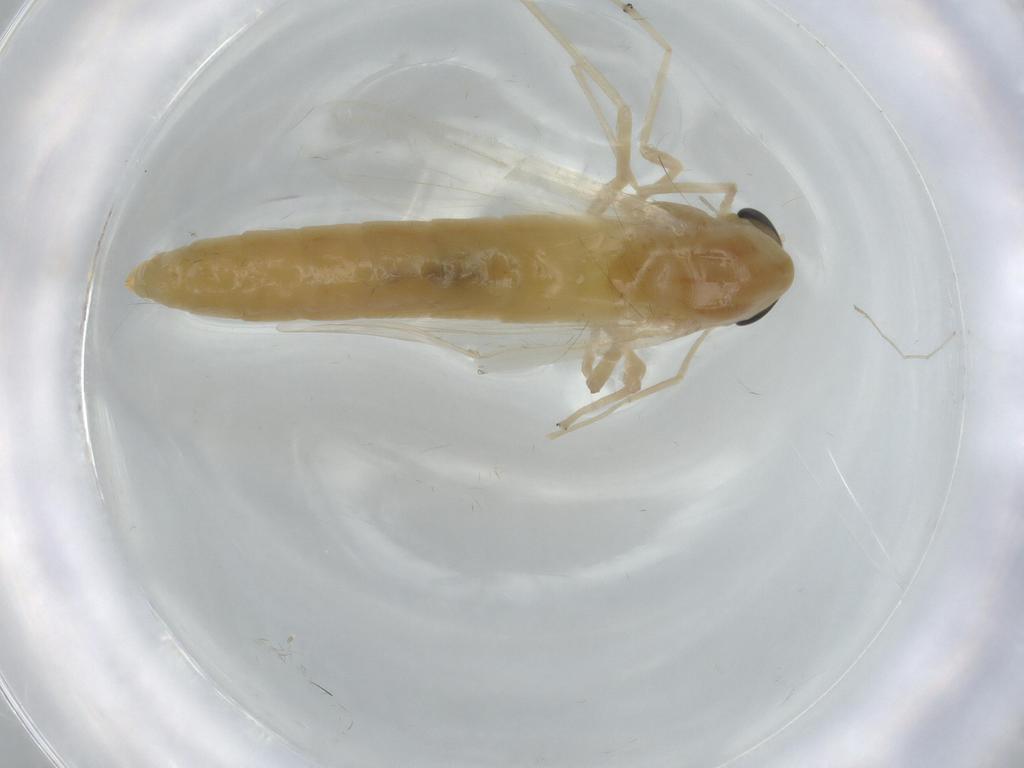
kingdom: Animalia
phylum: Arthropoda
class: Insecta
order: Diptera
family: Chironomidae
